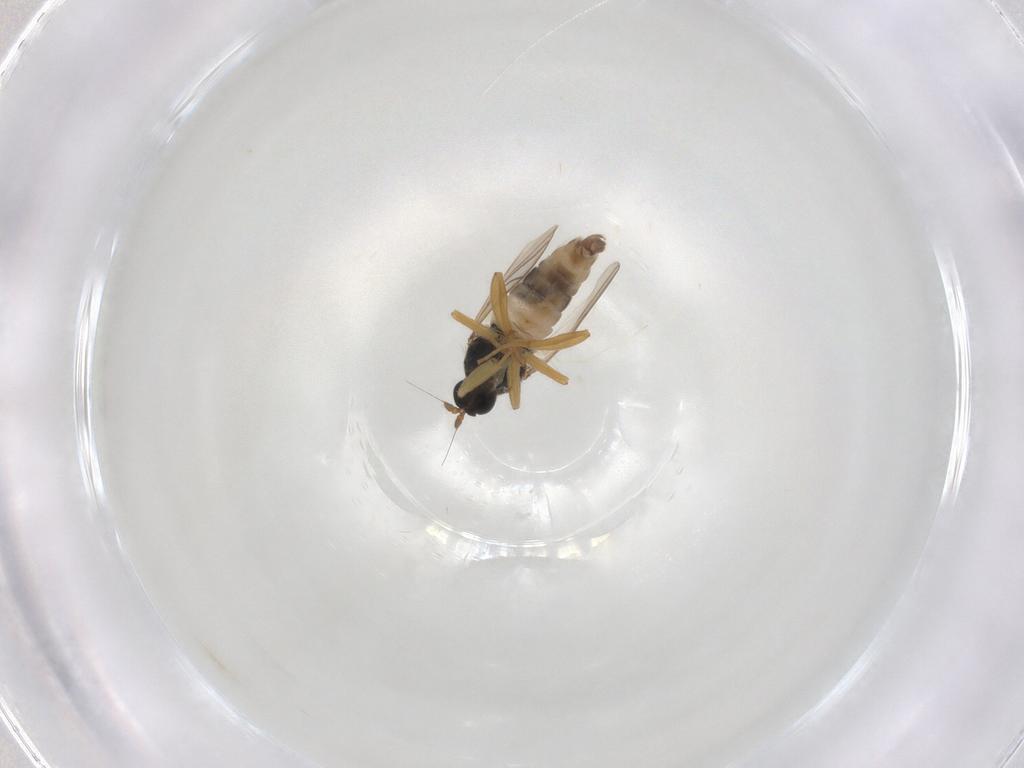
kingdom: Animalia
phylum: Arthropoda
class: Insecta
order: Diptera
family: Hybotidae
